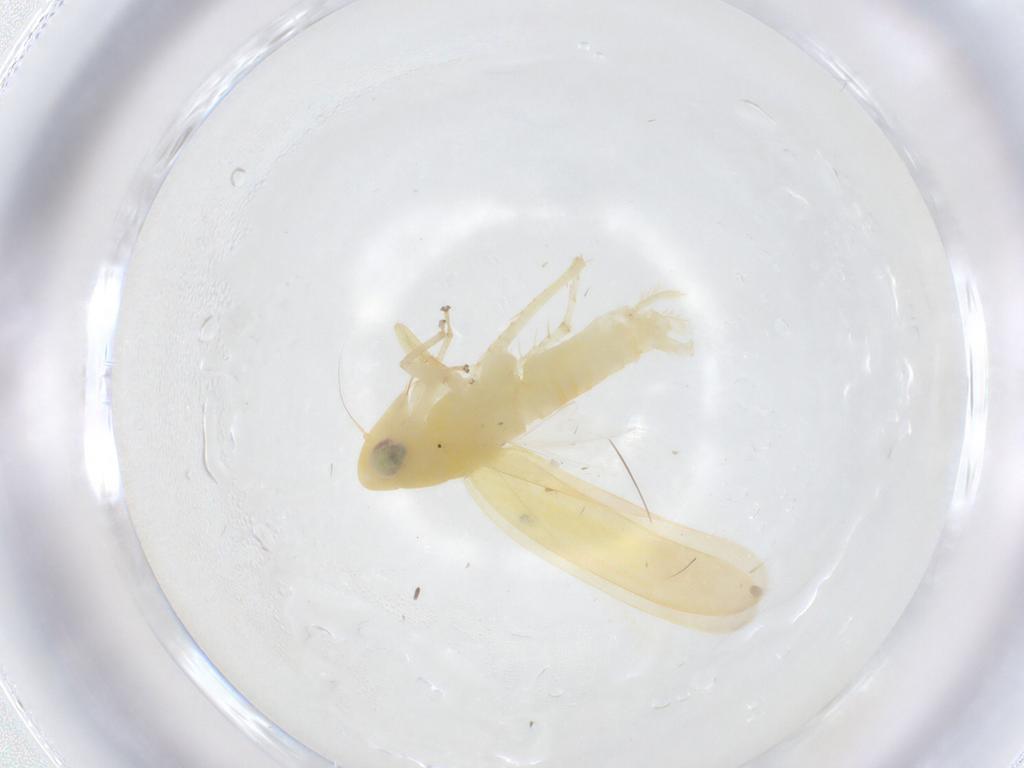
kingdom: Animalia
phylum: Arthropoda
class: Insecta
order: Hemiptera
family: Cicadellidae
